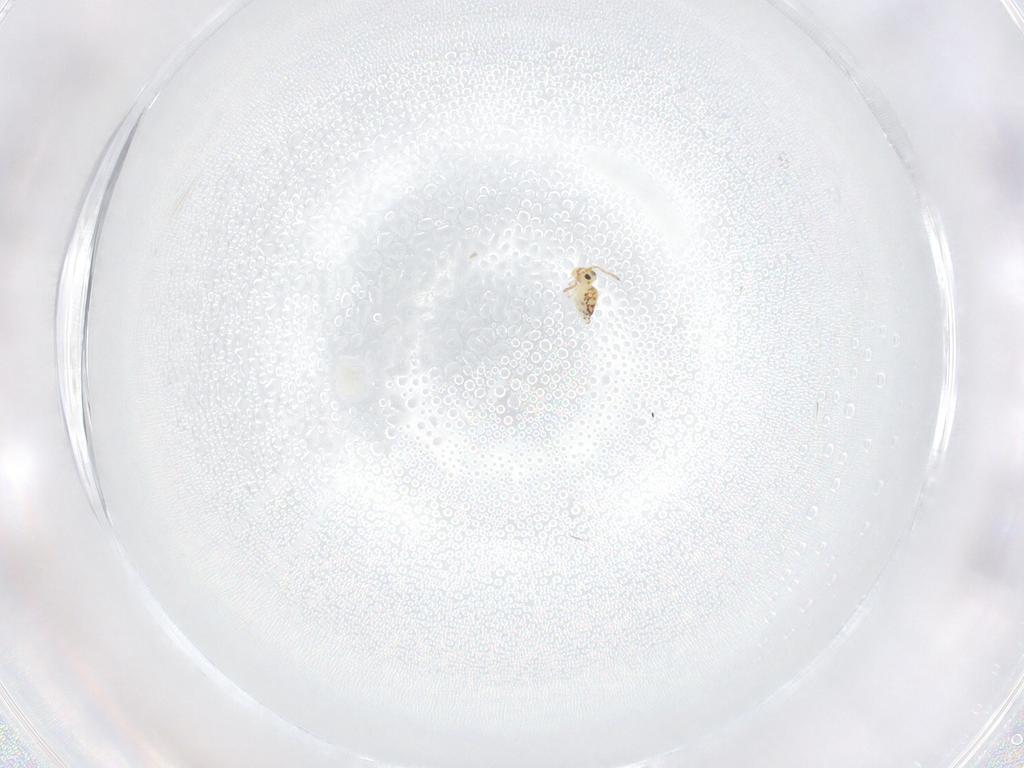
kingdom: Animalia
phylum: Arthropoda
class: Collembola
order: Symphypleona
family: Bourletiellidae
